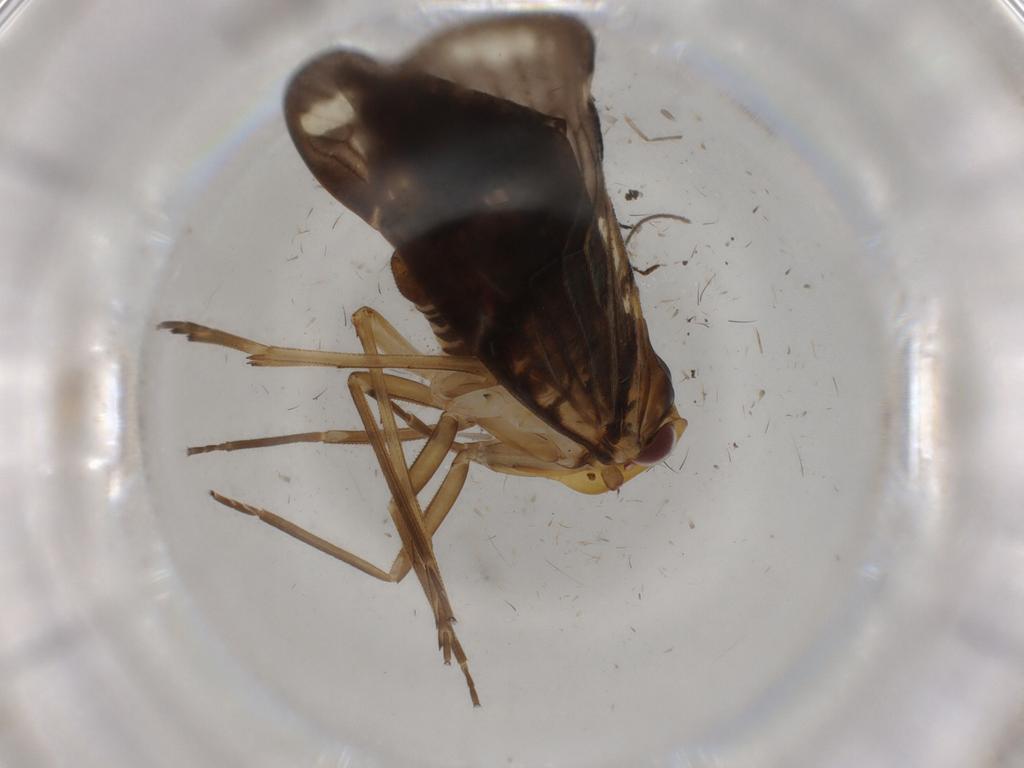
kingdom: Animalia
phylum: Arthropoda
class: Insecta
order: Hemiptera
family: Cixiidae
